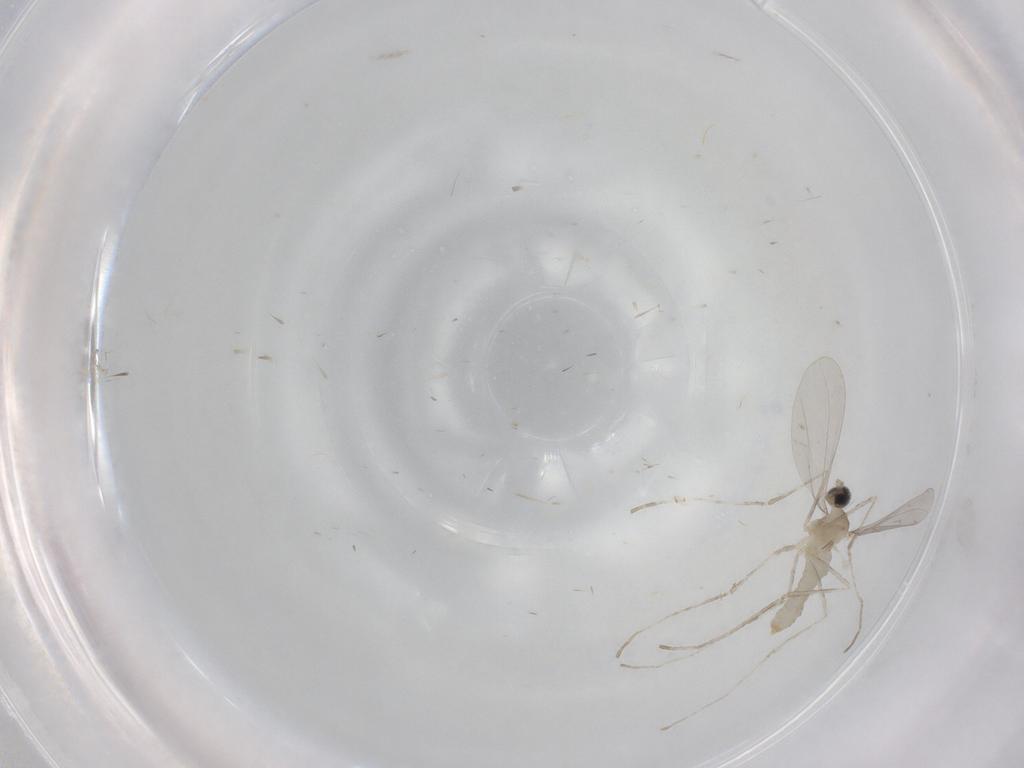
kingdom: Animalia
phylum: Arthropoda
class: Insecta
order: Diptera
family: Cecidomyiidae
